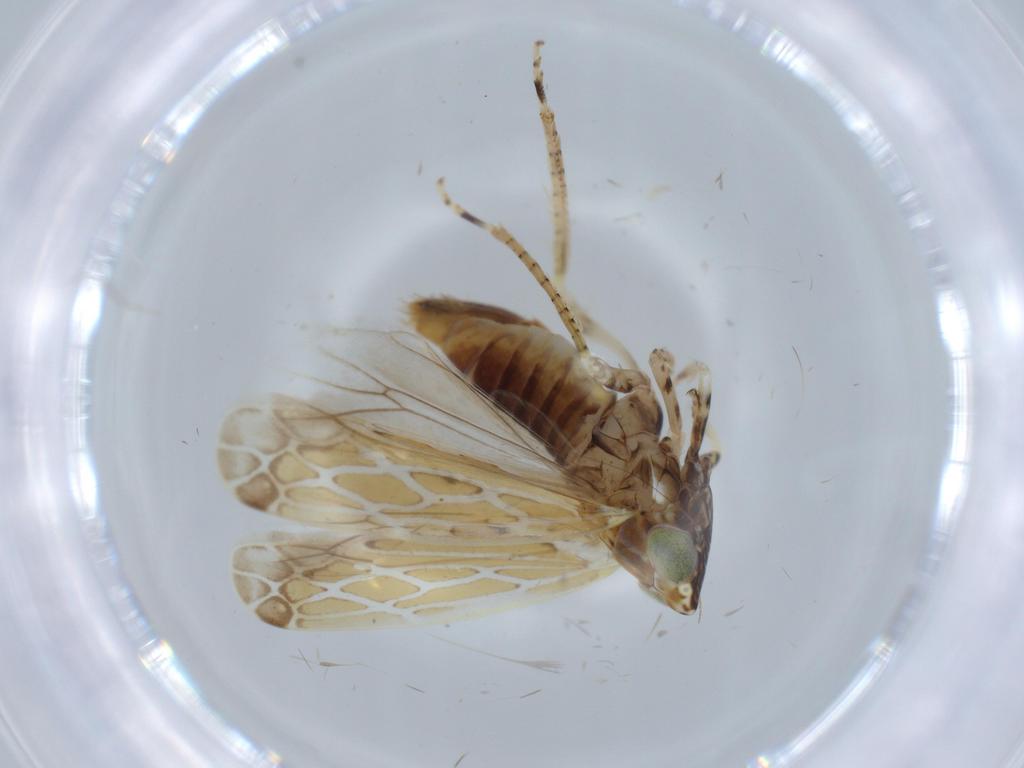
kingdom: Animalia
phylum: Arthropoda
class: Insecta
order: Hemiptera
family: Cicadellidae
